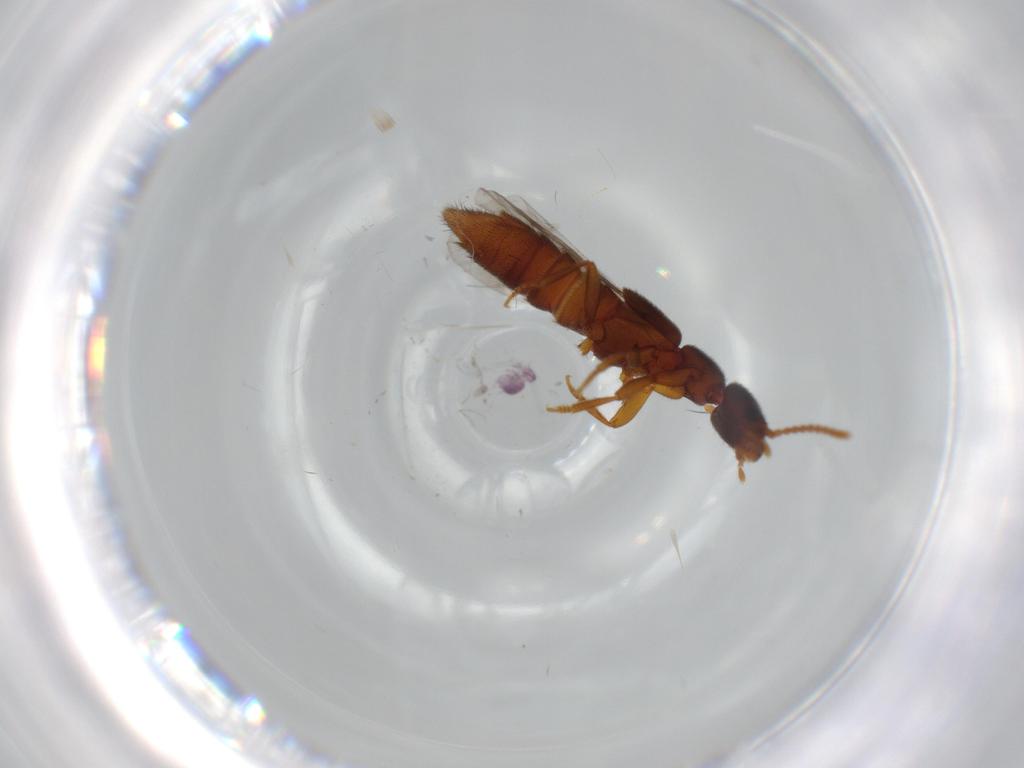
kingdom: Animalia
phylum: Arthropoda
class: Insecta
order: Coleoptera
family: Staphylinidae
